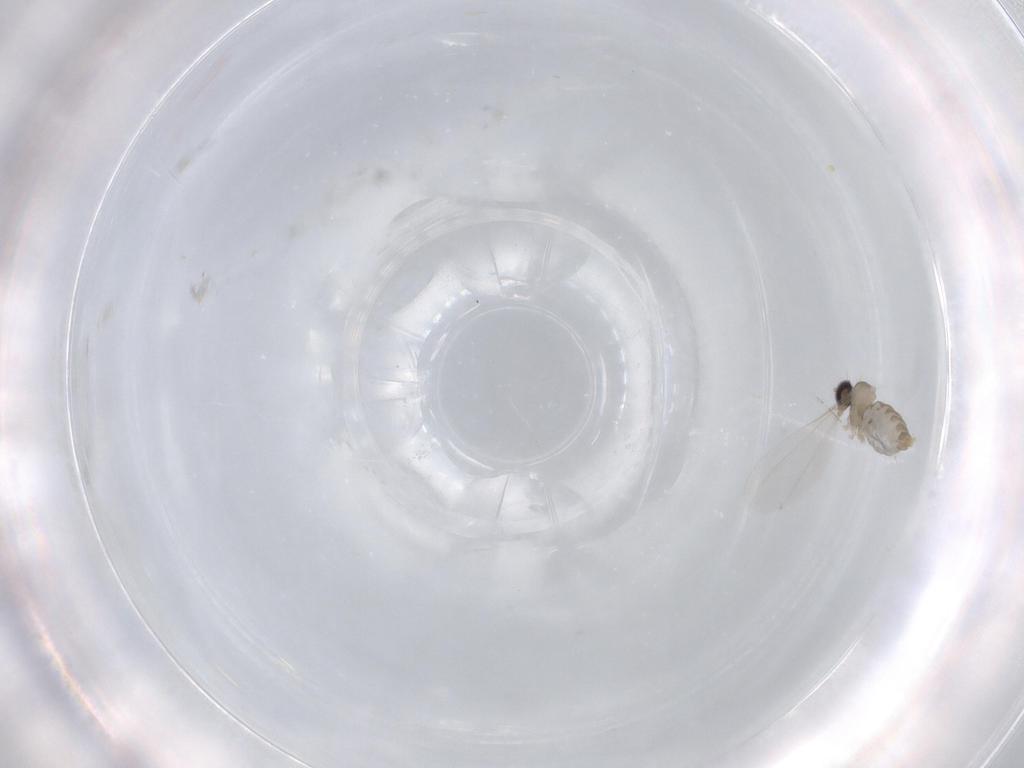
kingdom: Animalia
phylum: Arthropoda
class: Insecta
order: Diptera
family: Cecidomyiidae
